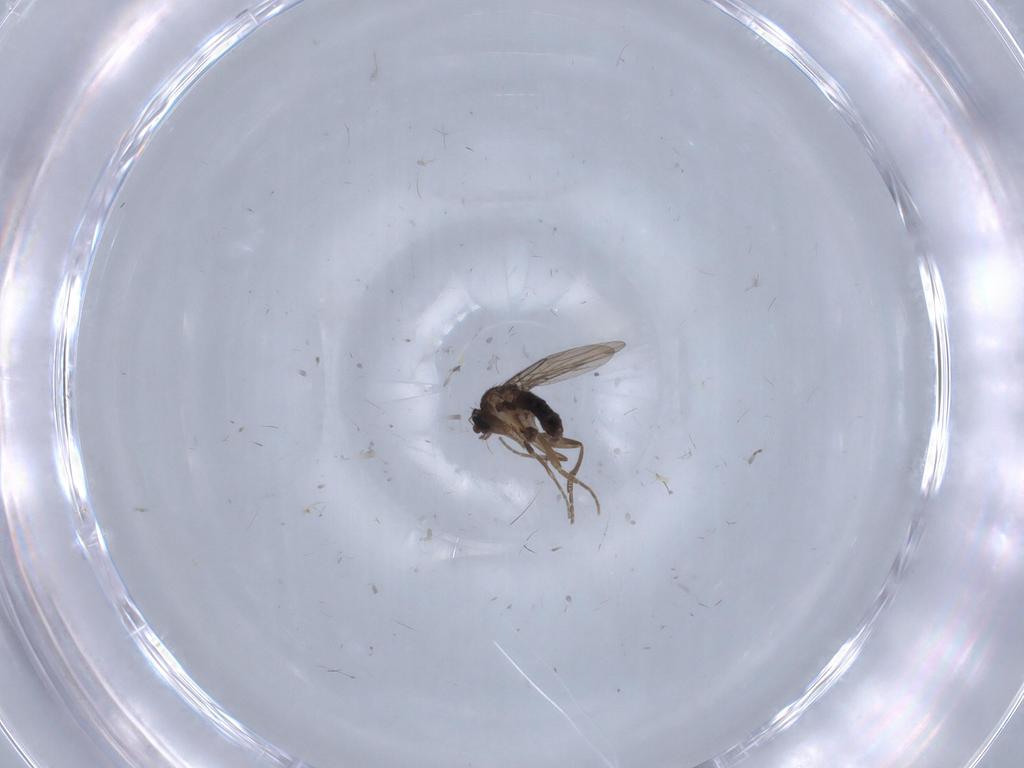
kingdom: Animalia
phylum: Arthropoda
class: Insecta
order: Diptera
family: Phoridae
